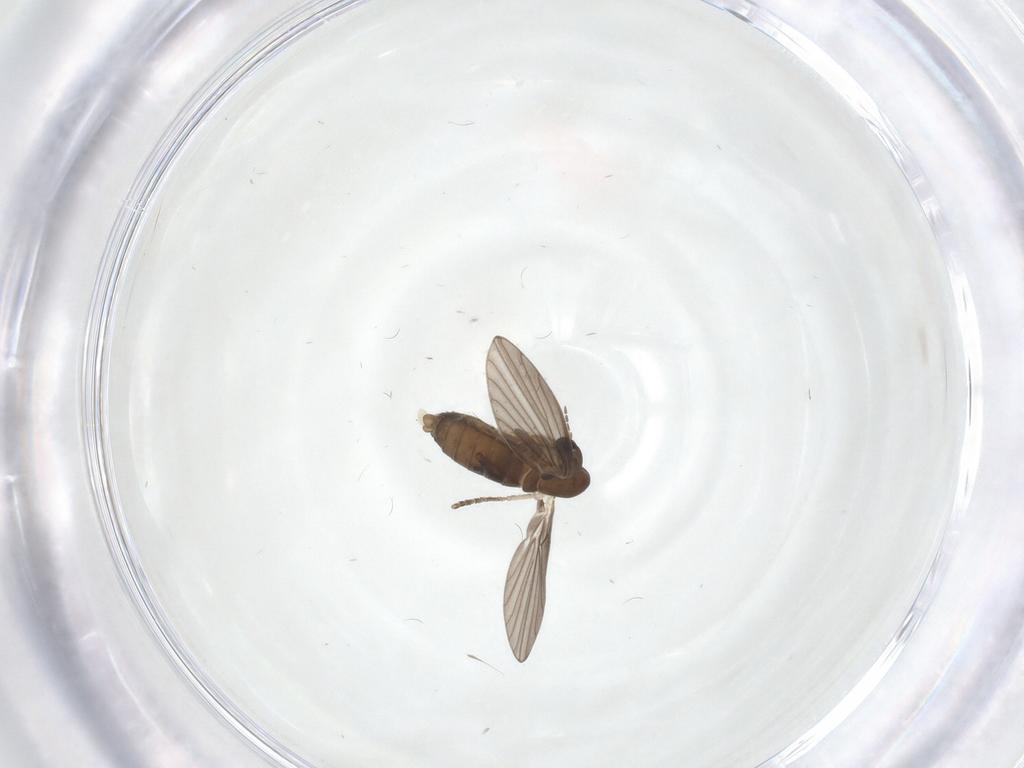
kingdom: Animalia
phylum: Arthropoda
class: Insecta
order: Diptera
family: Psychodidae
